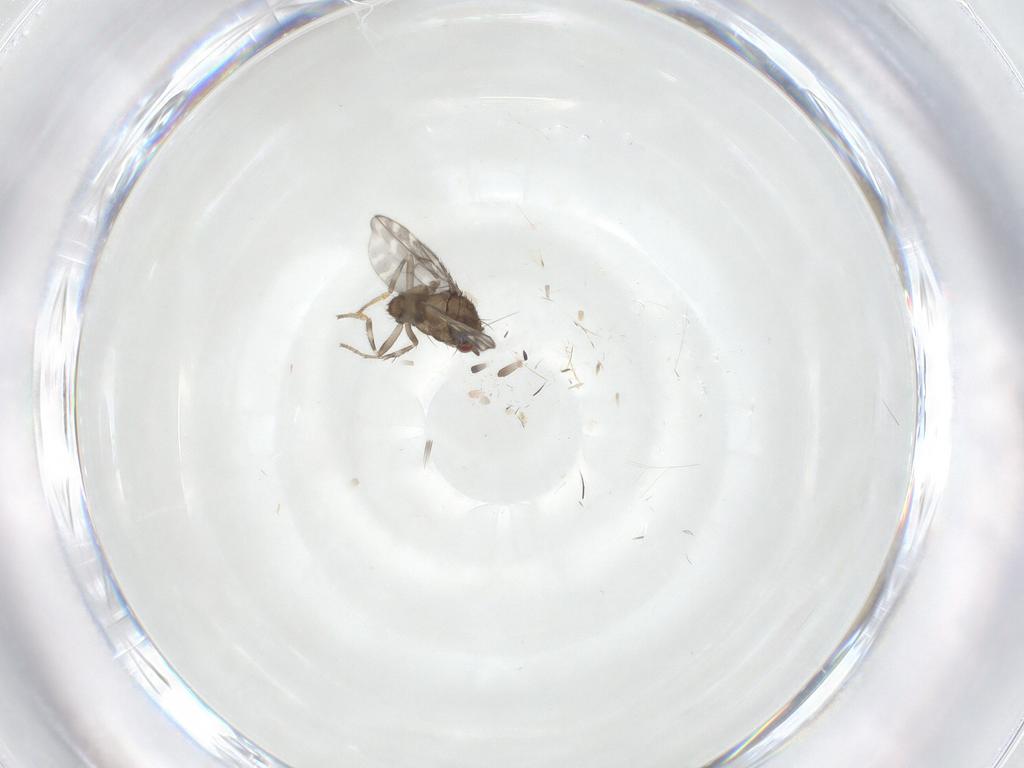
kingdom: Animalia
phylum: Arthropoda
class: Insecta
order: Diptera
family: Sphaeroceridae
